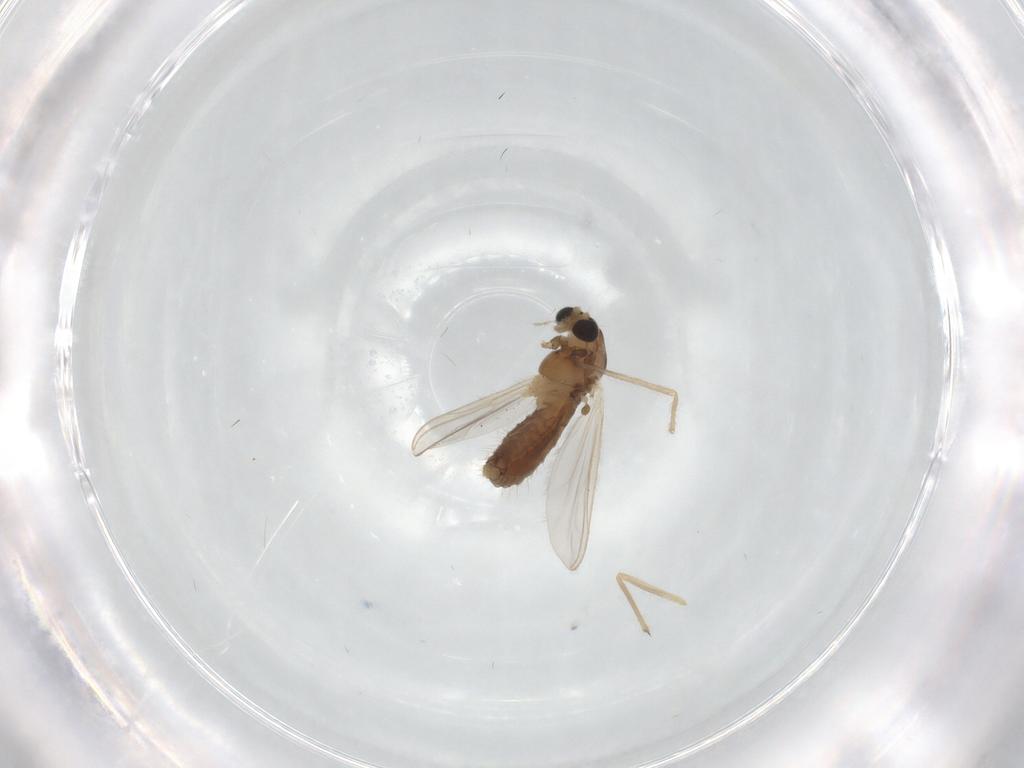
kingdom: Animalia
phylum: Arthropoda
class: Insecta
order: Diptera
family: Chironomidae
